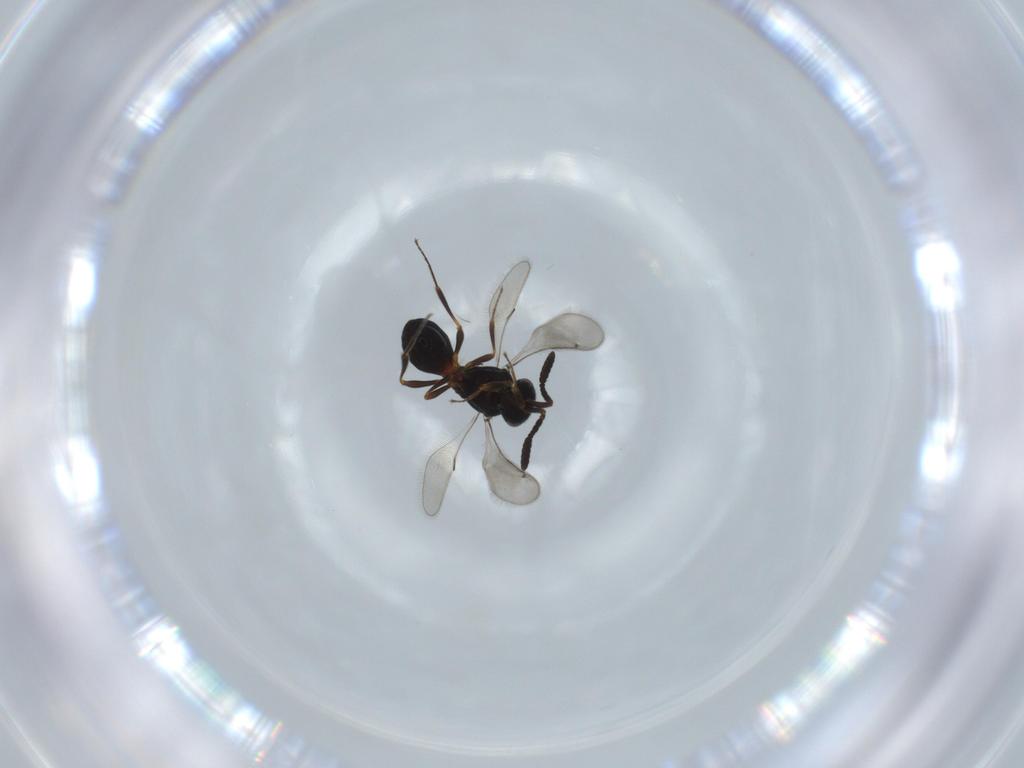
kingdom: Animalia
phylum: Arthropoda
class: Insecta
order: Hymenoptera
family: Scelionidae
